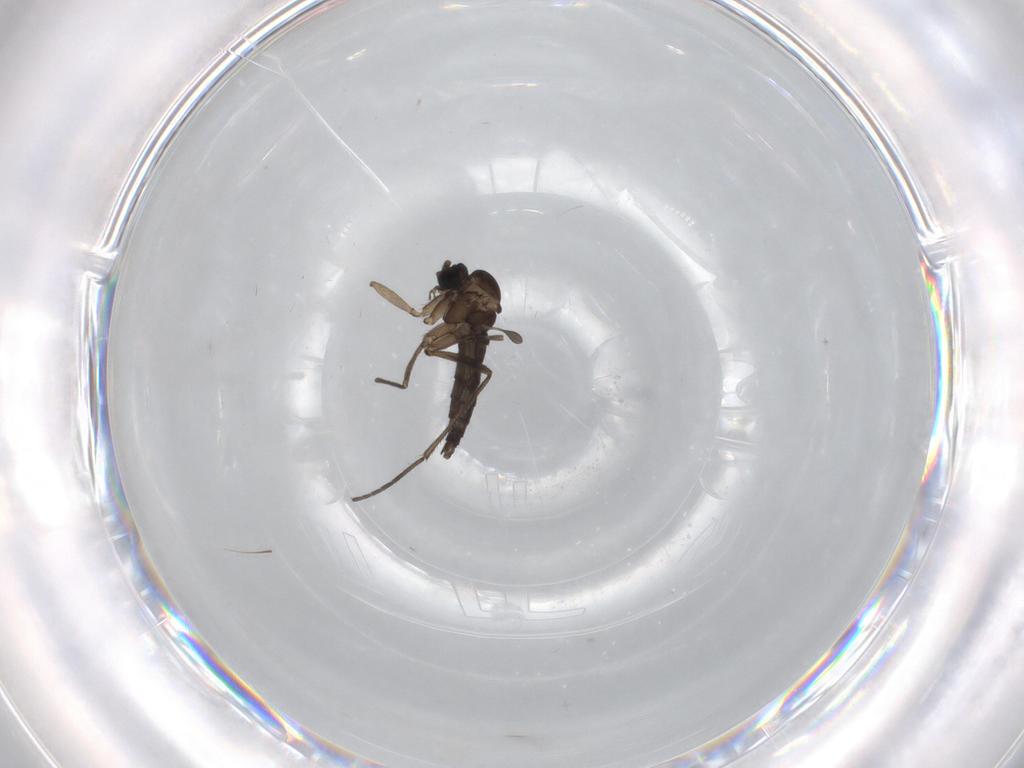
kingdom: Animalia
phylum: Arthropoda
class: Insecta
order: Diptera
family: Sciaridae
